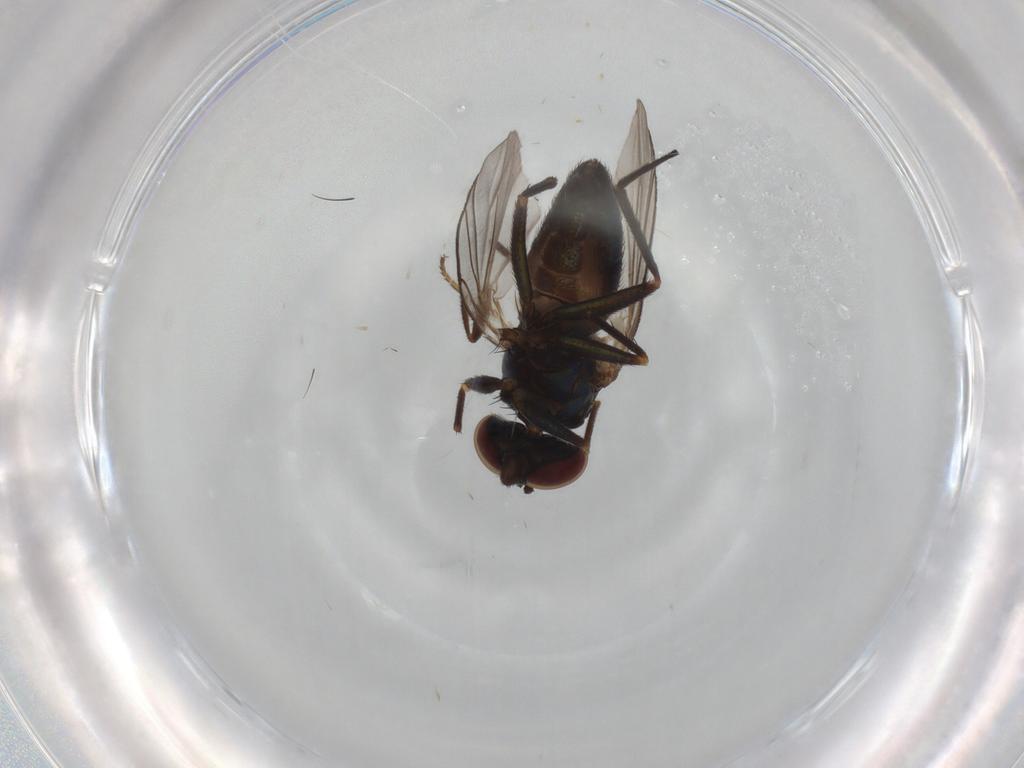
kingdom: Animalia
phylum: Arthropoda
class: Insecta
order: Diptera
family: Dolichopodidae
